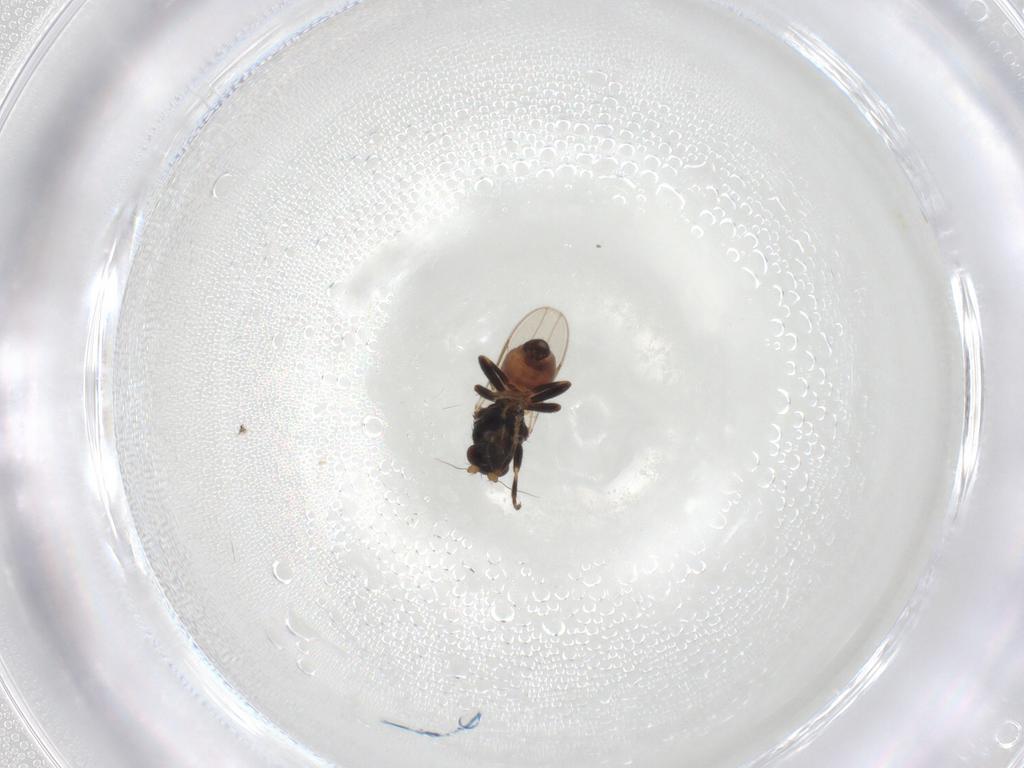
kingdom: Animalia
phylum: Arthropoda
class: Insecta
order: Diptera
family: Sphaeroceridae
